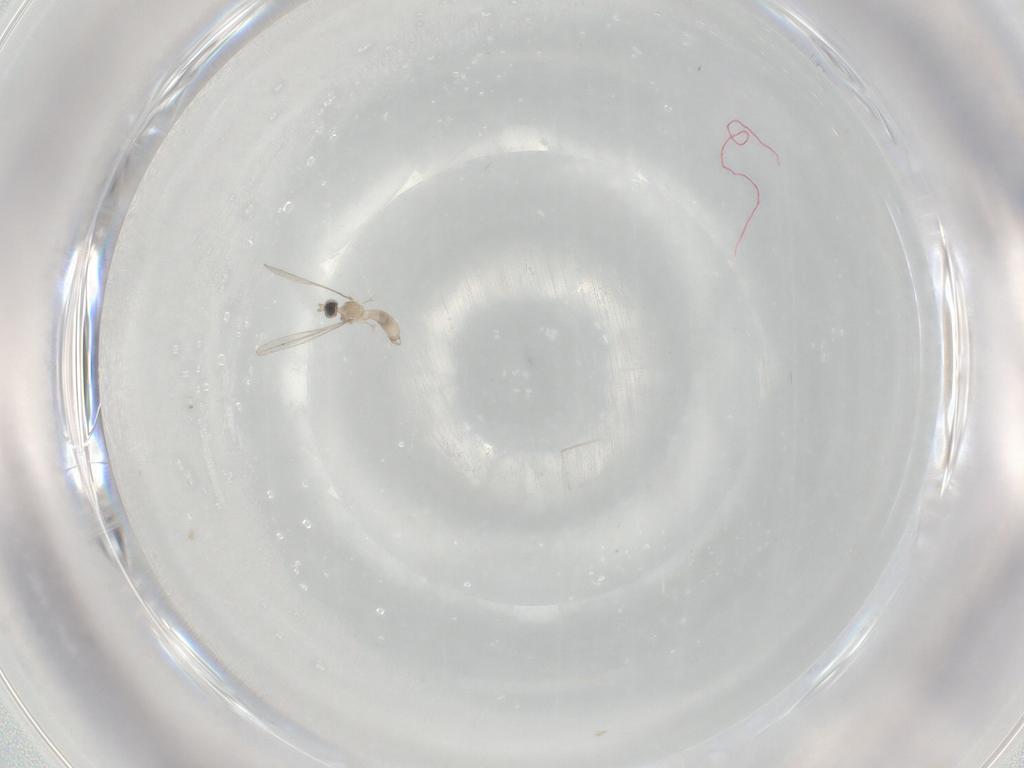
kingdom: Animalia
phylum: Arthropoda
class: Insecta
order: Diptera
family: Cecidomyiidae
